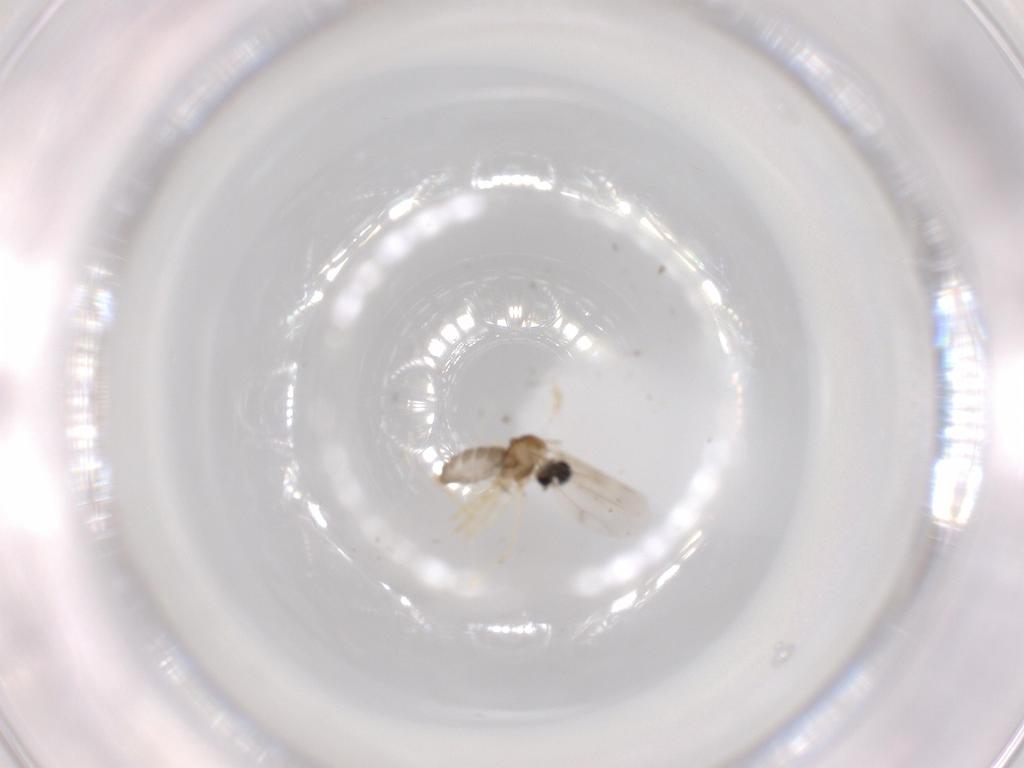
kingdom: Animalia
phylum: Arthropoda
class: Insecta
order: Diptera
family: Cecidomyiidae
